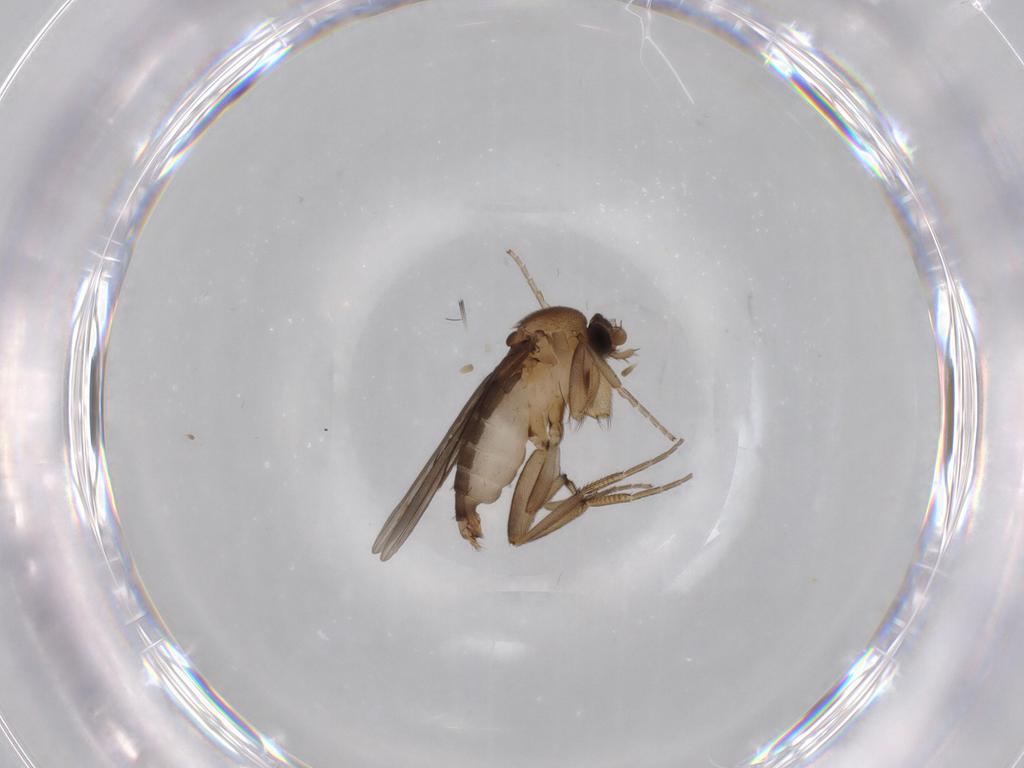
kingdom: Animalia
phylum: Arthropoda
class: Insecta
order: Diptera
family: Phoridae
